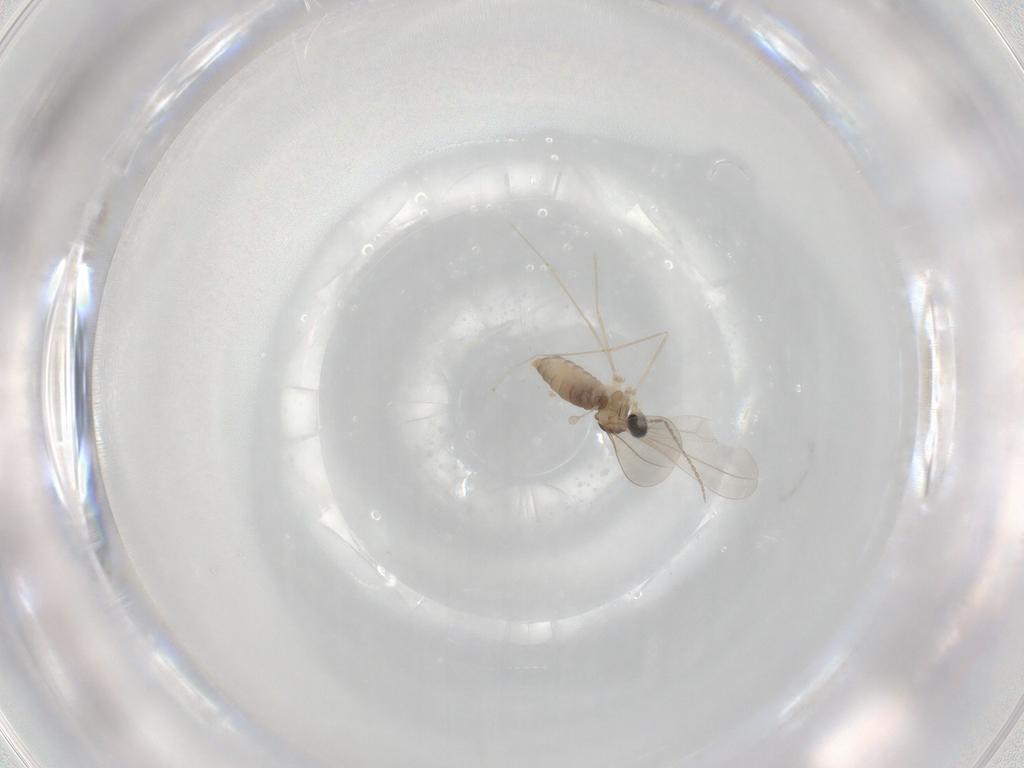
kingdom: Animalia
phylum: Arthropoda
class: Insecta
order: Diptera
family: Cecidomyiidae
